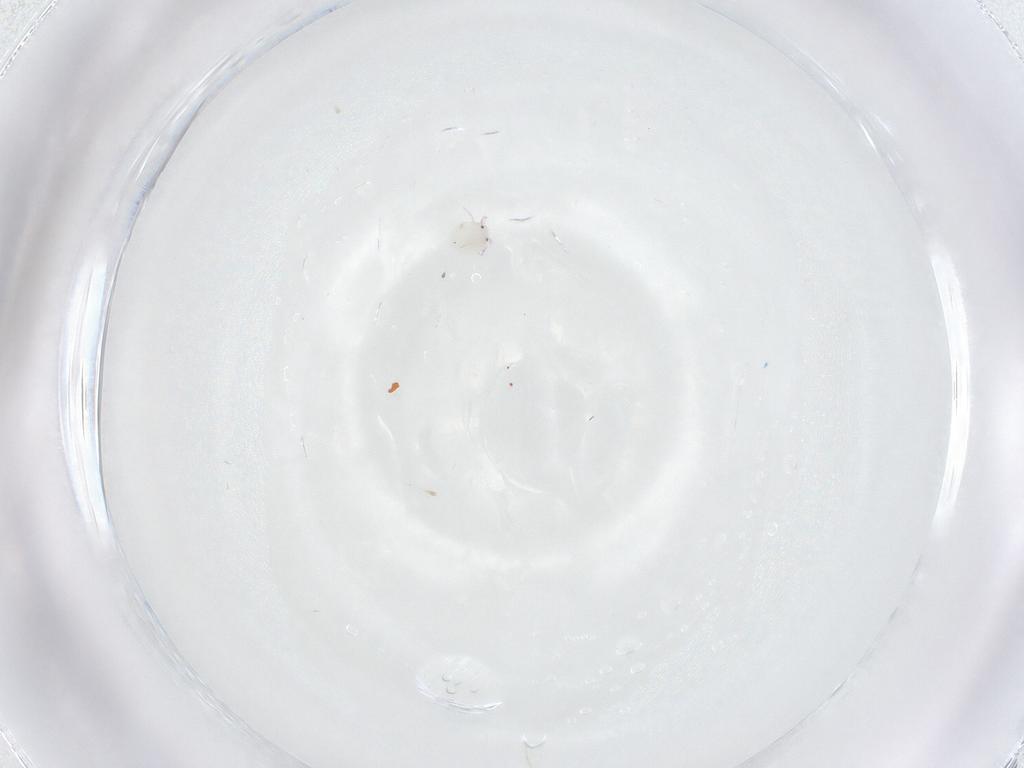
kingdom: Animalia
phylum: Arthropoda
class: Arachnida
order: Trombidiformes
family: Arrenuridae
